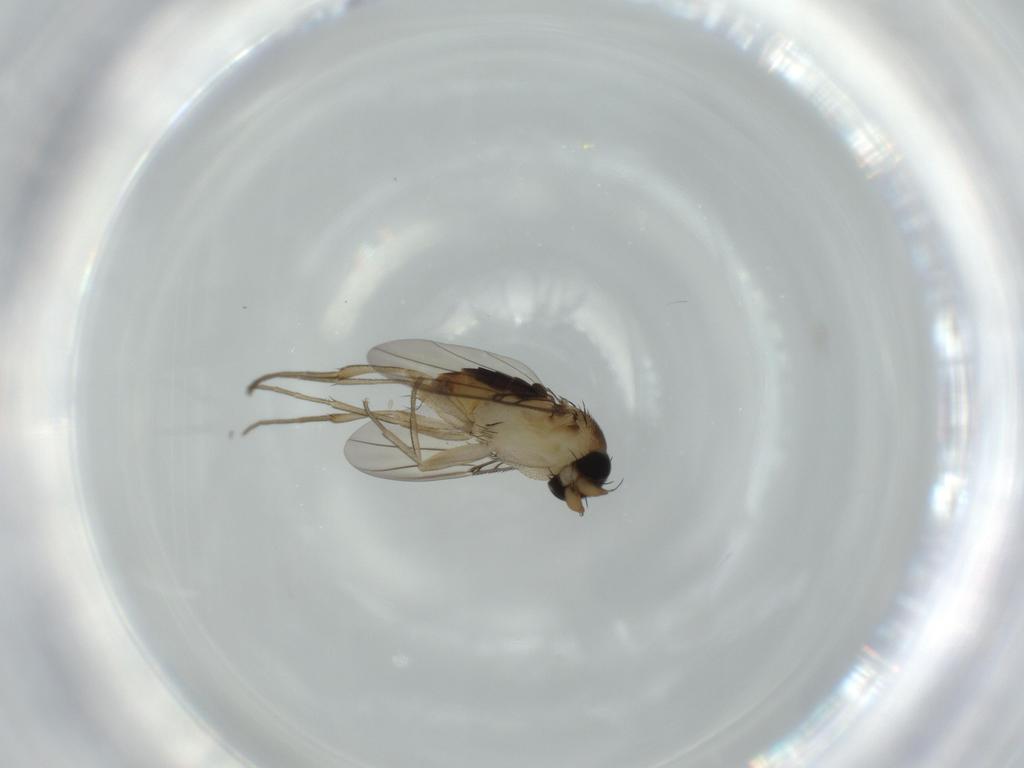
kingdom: Animalia
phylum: Arthropoda
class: Insecta
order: Diptera
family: Phoridae
